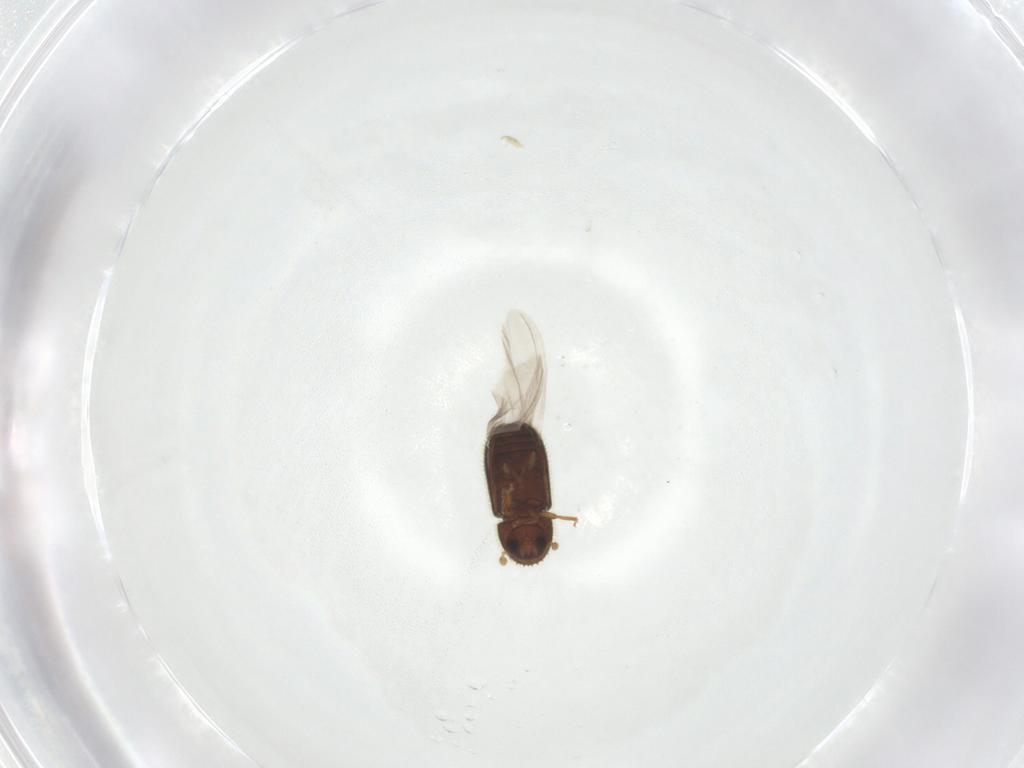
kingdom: Animalia
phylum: Arthropoda
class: Insecta
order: Coleoptera
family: Curculionidae
